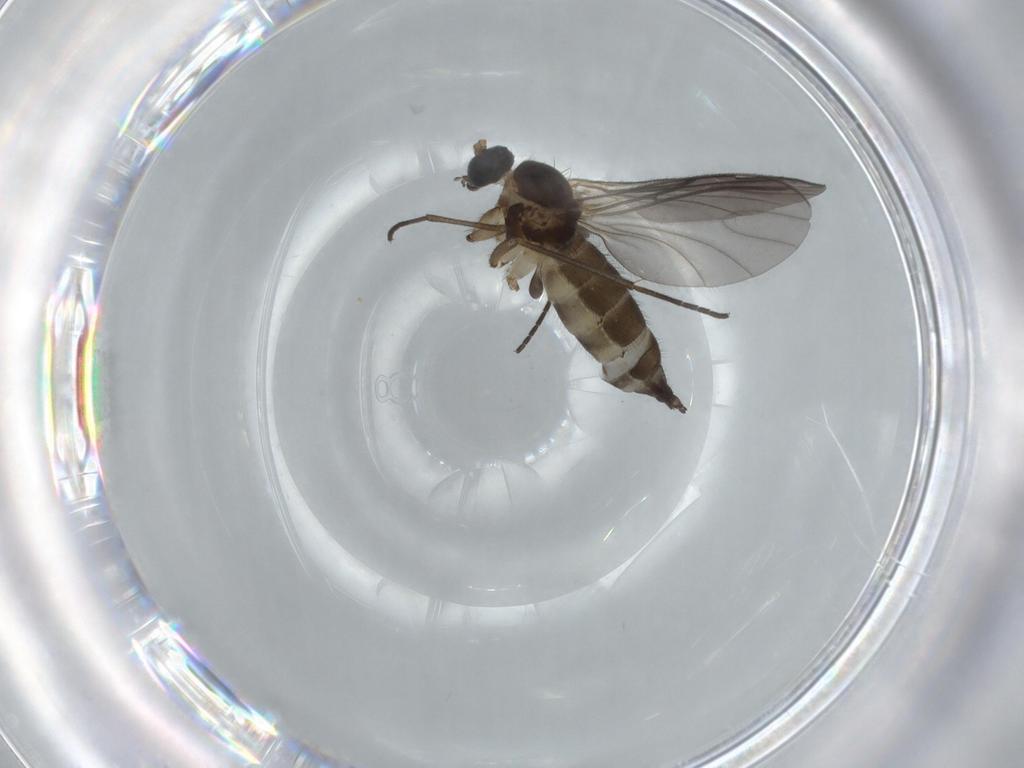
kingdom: Animalia
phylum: Arthropoda
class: Insecta
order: Diptera
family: Sciaridae
